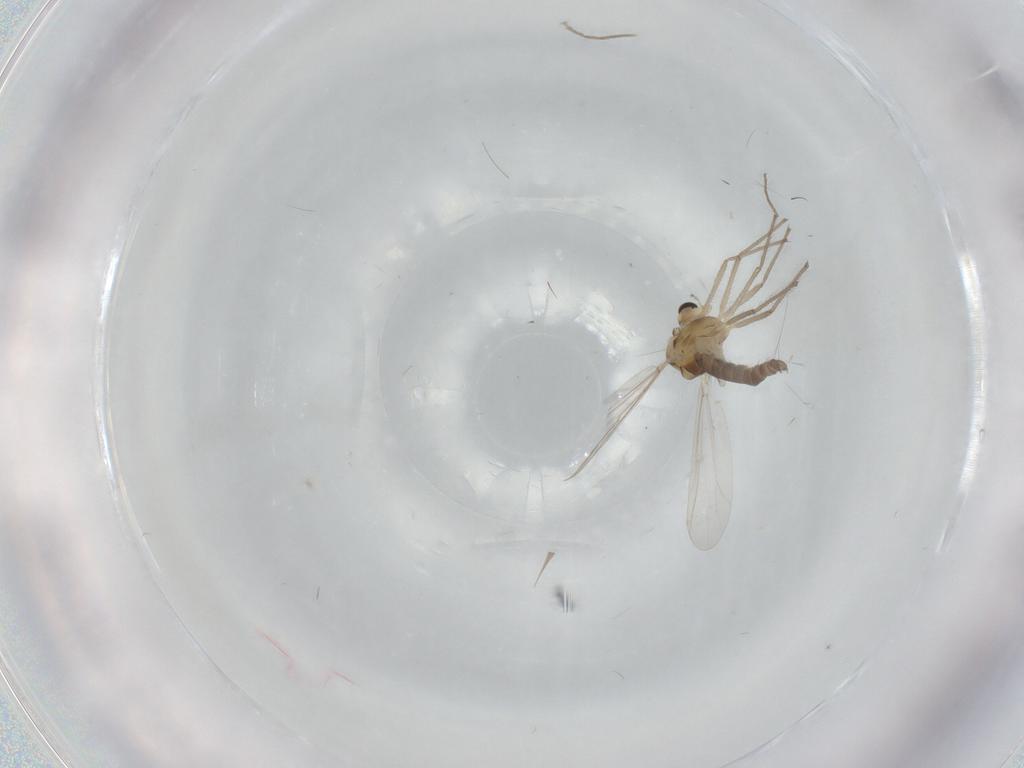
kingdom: Animalia
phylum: Arthropoda
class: Insecta
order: Diptera
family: Chironomidae
